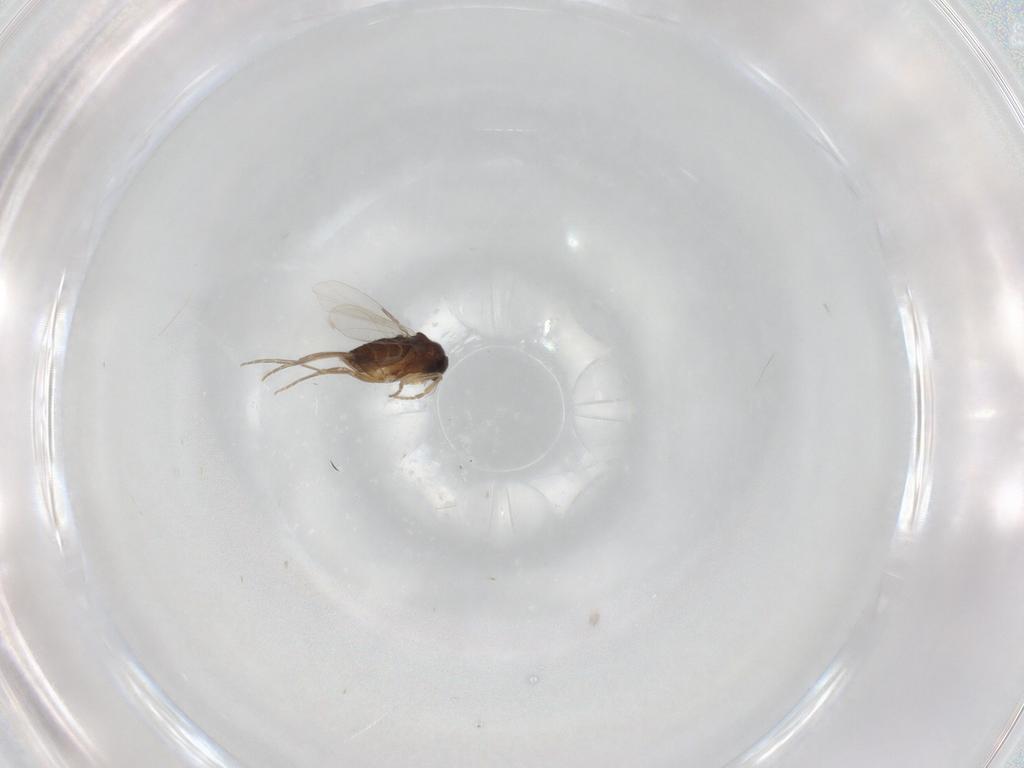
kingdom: Animalia
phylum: Arthropoda
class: Insecta
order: Diptera
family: Phoridae
